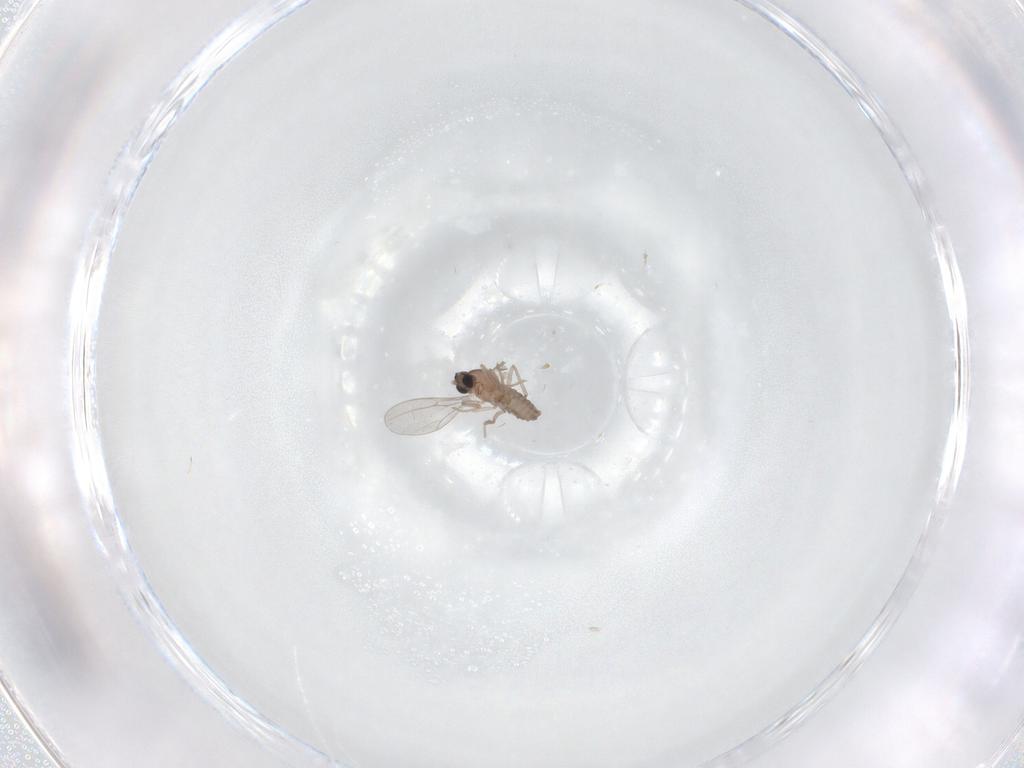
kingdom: Animalia
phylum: Arthropoda
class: Insecta
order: Diptera
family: Cecidomyiidae
